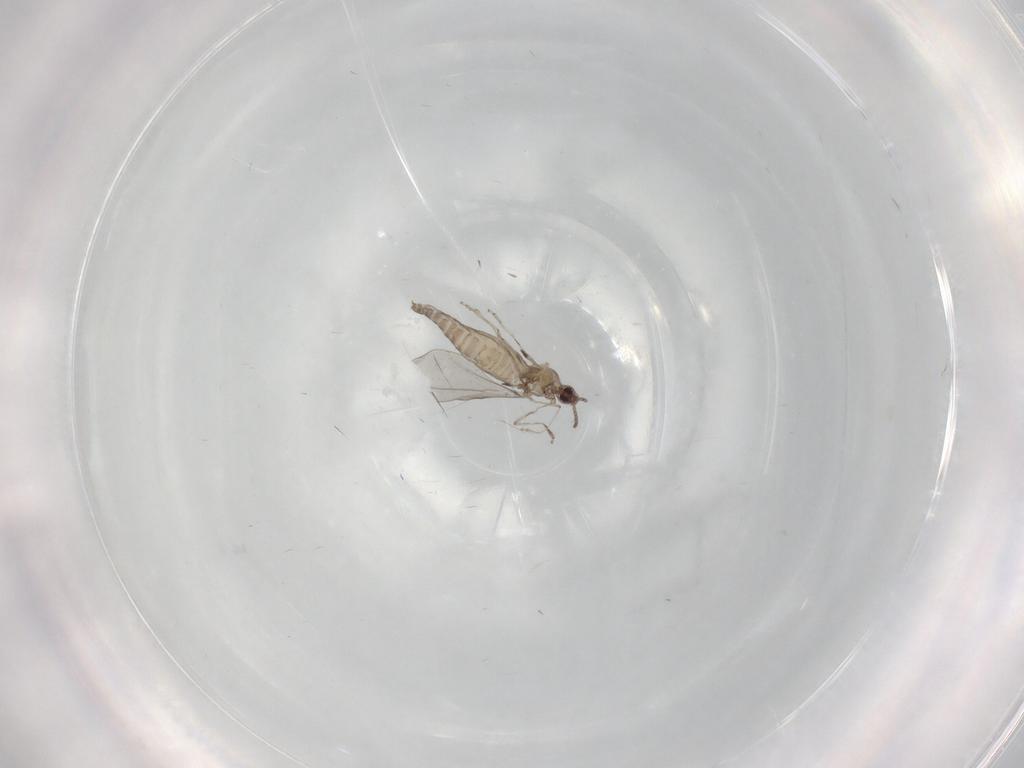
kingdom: Animalia
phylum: Arthropoda
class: Insecta
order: Diptera
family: Cecidomyiidae
